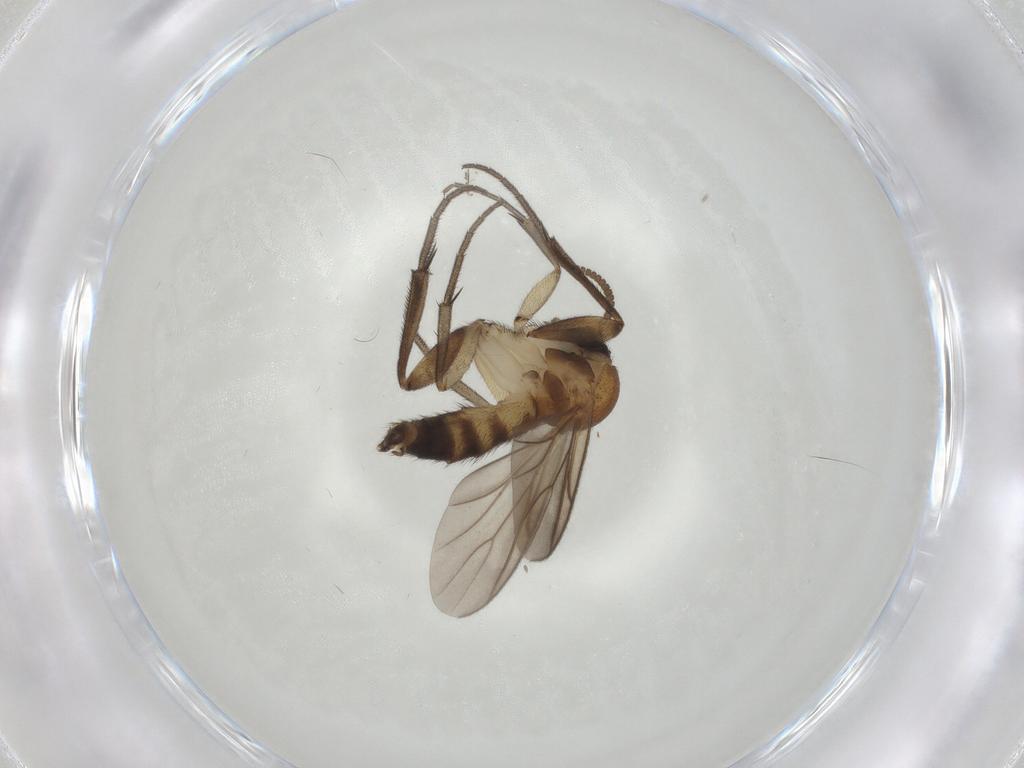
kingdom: Animalia
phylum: Arthropoda
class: Insecta
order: Diptera
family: Mycetophilidae
